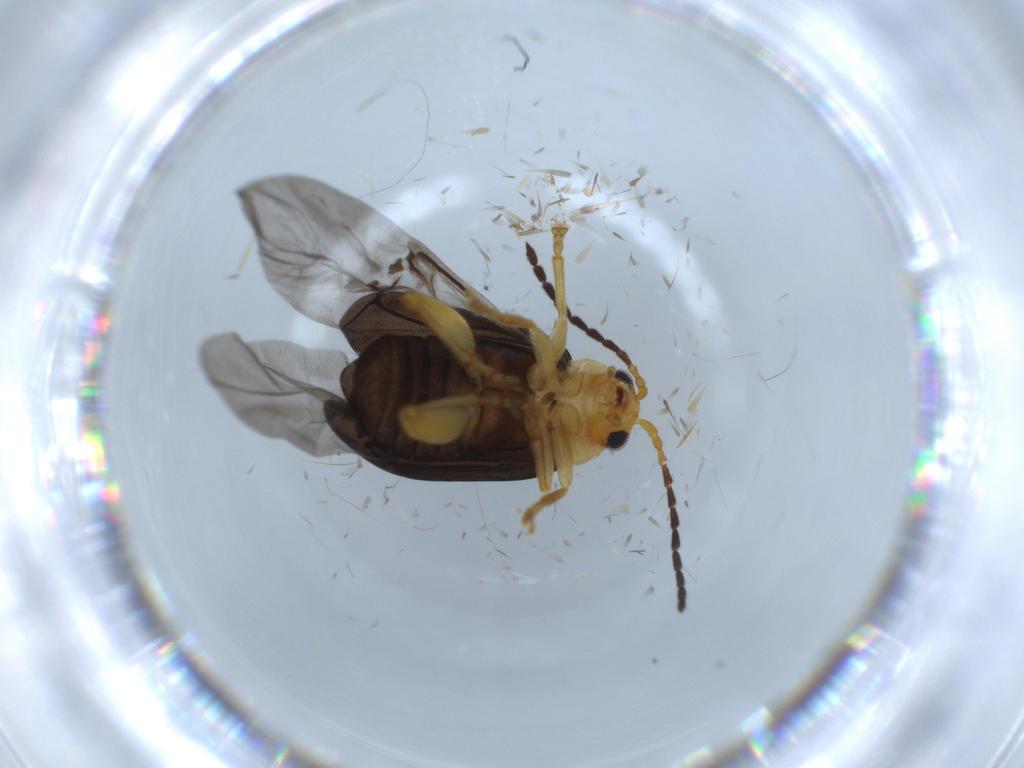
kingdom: Animalia
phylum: Arthropoda
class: Insecta
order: Coleoptera
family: Chrysomelidae
